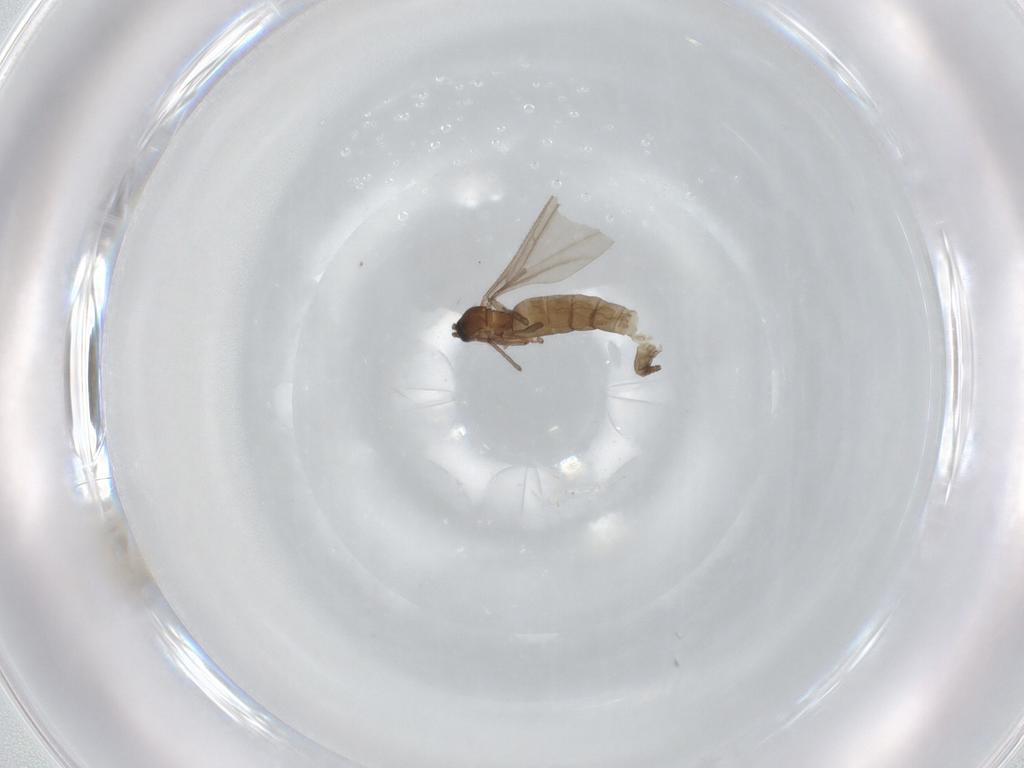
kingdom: Animalia
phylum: Arthropoda
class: Insecta
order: Diptera
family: Sciaridae
